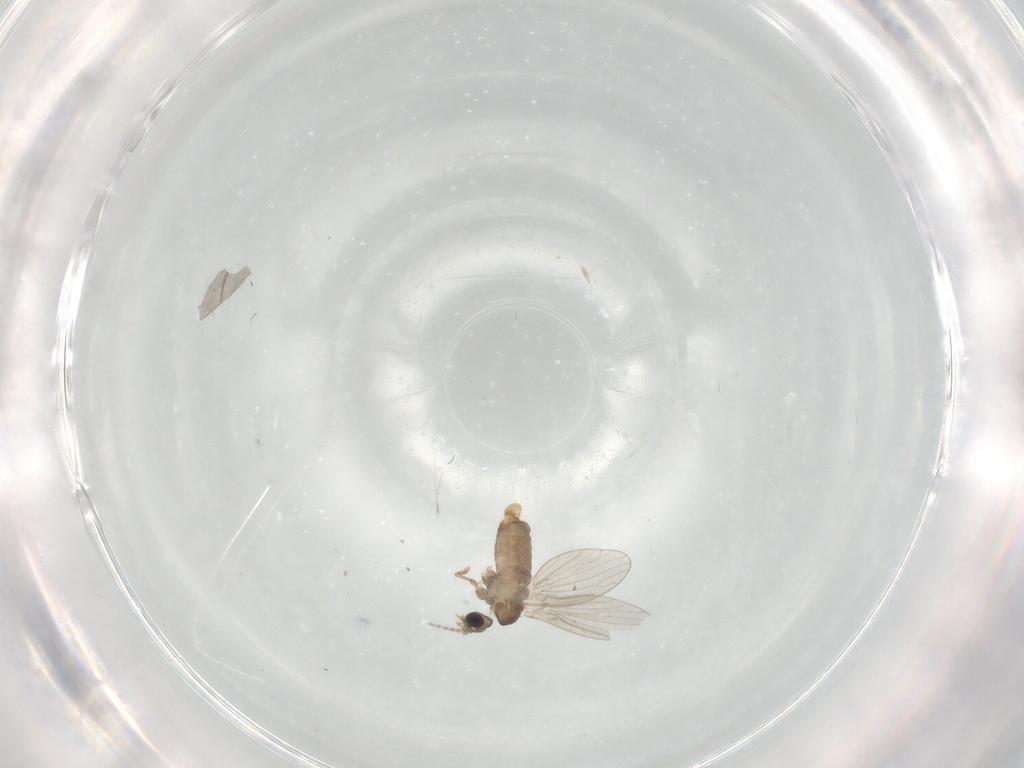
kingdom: Animalia
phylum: Arthropoda
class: Insecta
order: Diptera
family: Psychodidae
